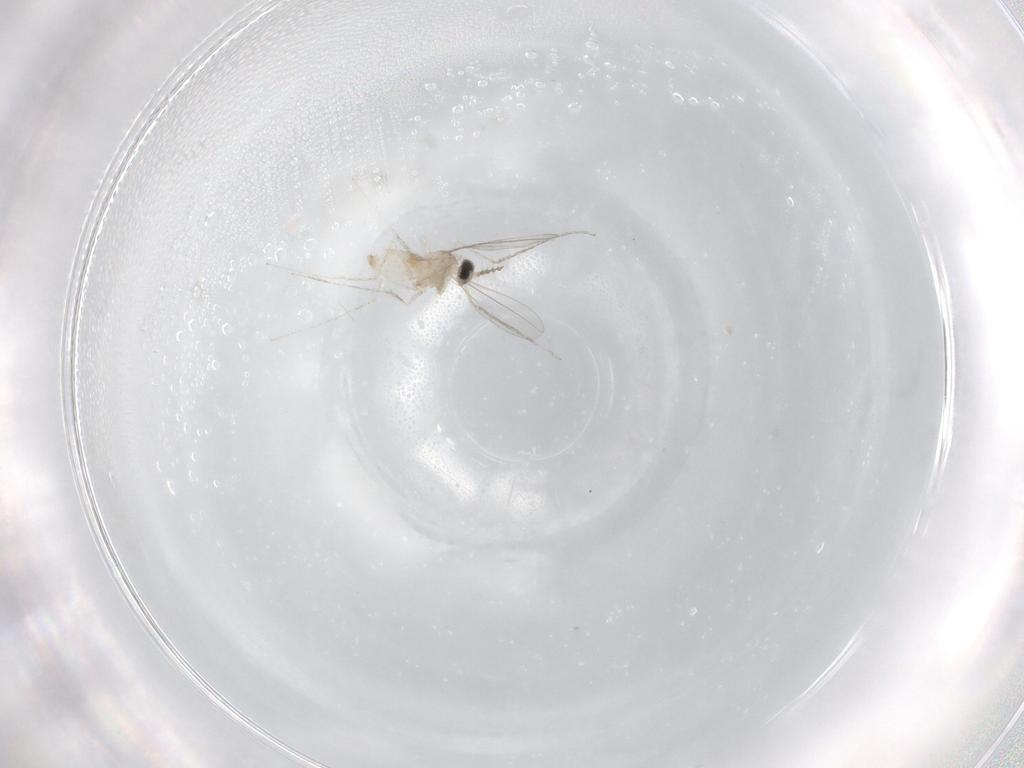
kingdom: Animalia
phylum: Arthropoda
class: Insecta
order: Diptera
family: Cecidomyiidae
